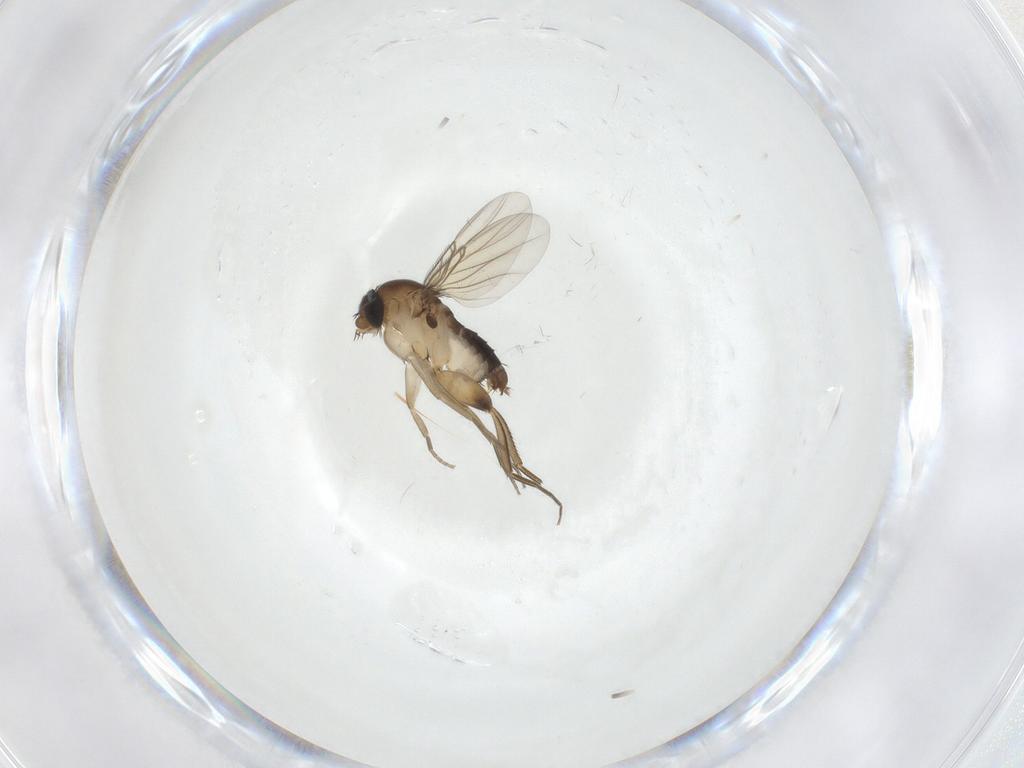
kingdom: Animalia
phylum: Arthropoda
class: Insecta
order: Diptera
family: Phoridae
